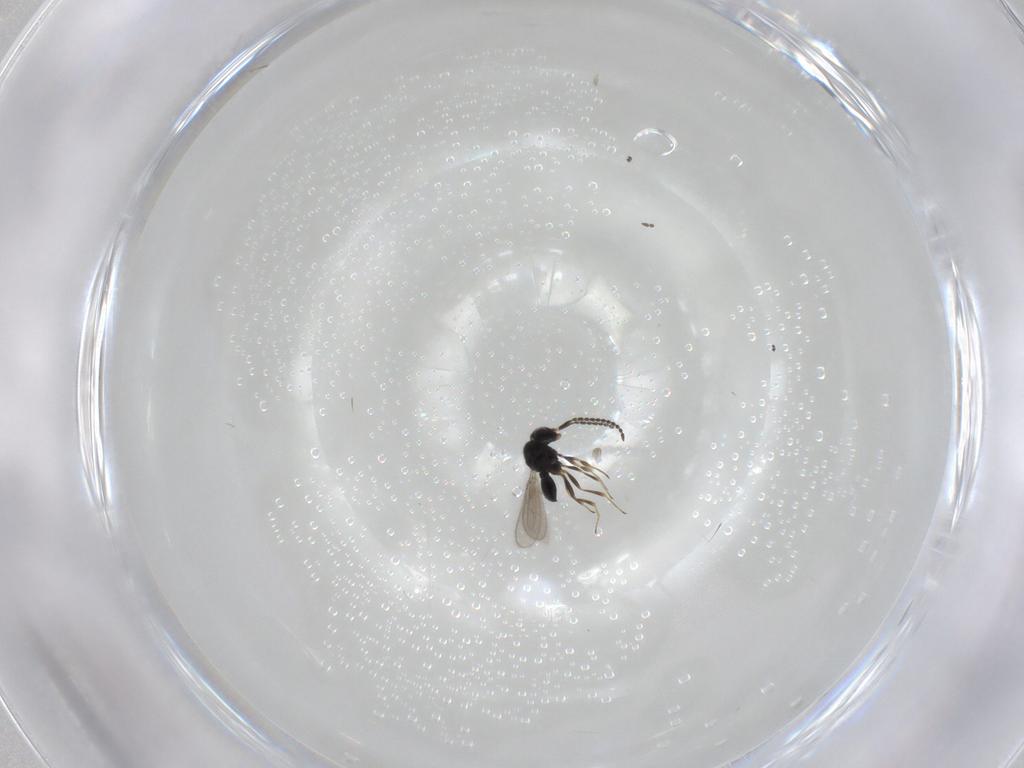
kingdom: Animalia
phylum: Arthropoda
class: Insecta
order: Hymenoptera
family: Scelionidae
